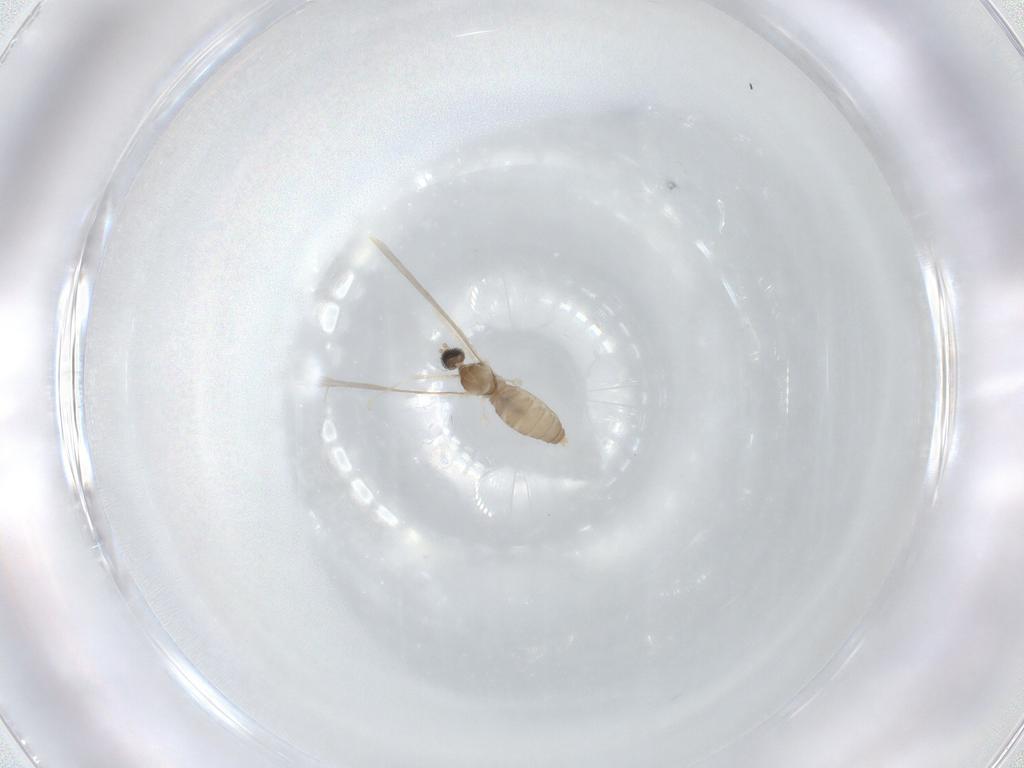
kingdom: Animalia
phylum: Arthropoda
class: Insecta
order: Diptera
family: Cecidomyiidae
